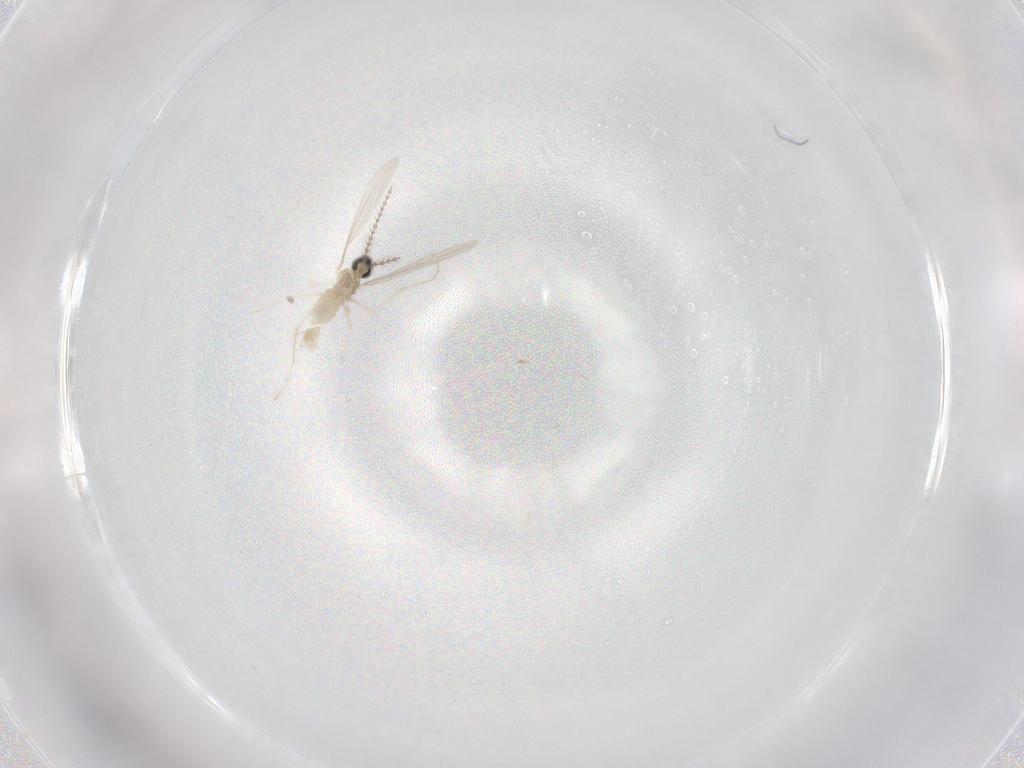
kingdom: Animalia
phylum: Arthropoda
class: Insecta
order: Diptera
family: Cecidomyiidae
